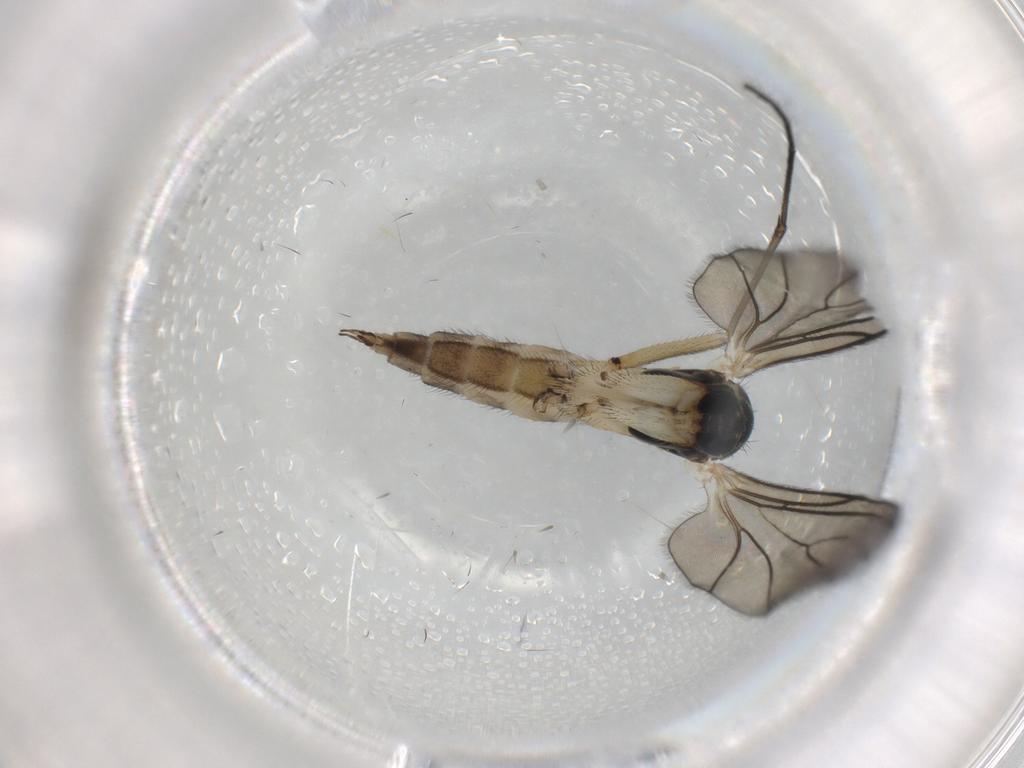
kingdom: Animalia
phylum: Arthropoda
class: Insecta
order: Diptera
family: Sciaridae
